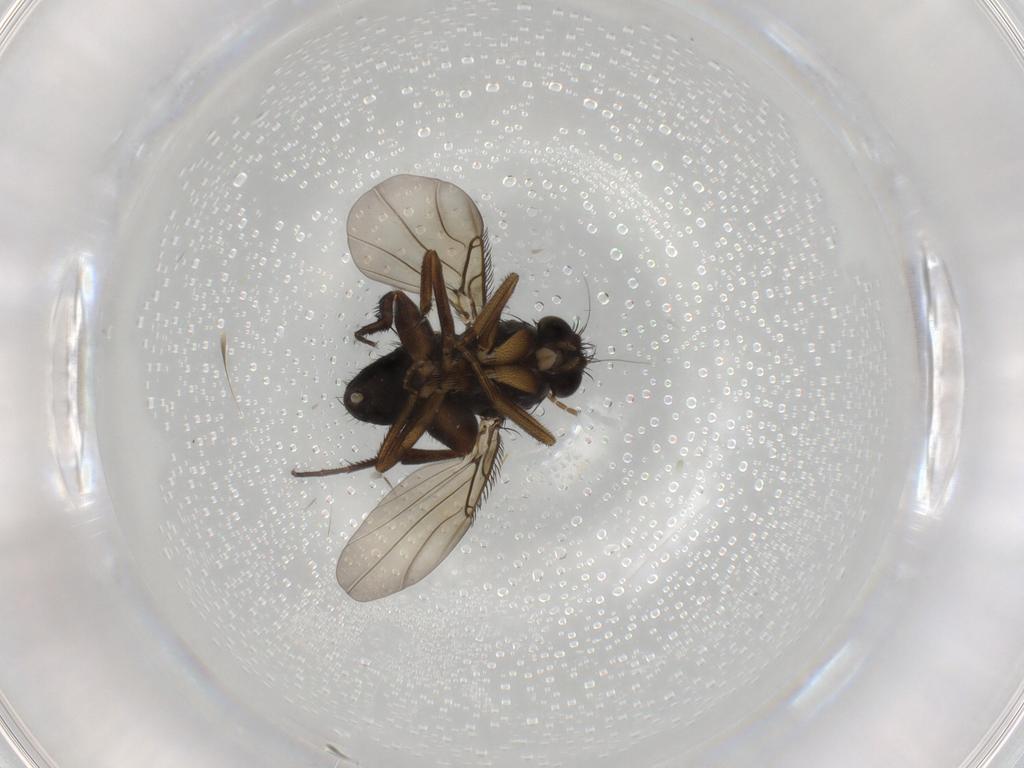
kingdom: Animalia
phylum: Arthropoda
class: Insecta
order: Diptera
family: Phoridae
